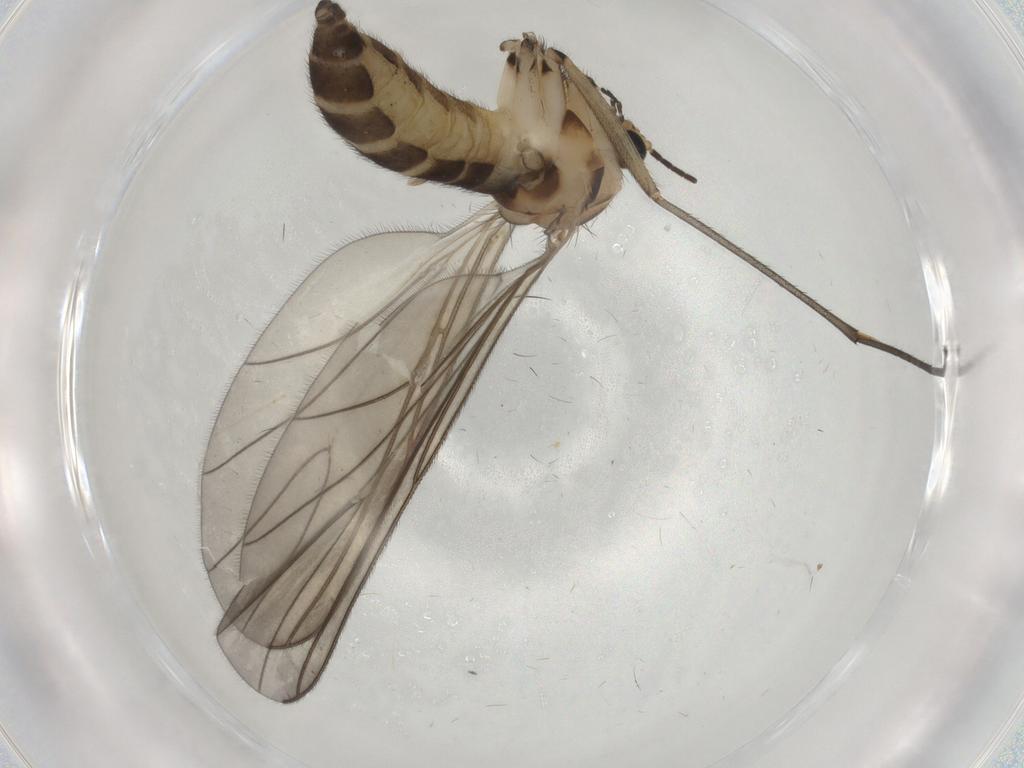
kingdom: Animalia
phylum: Arthropoda
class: Insecta
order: Diptera
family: Sciaridae
